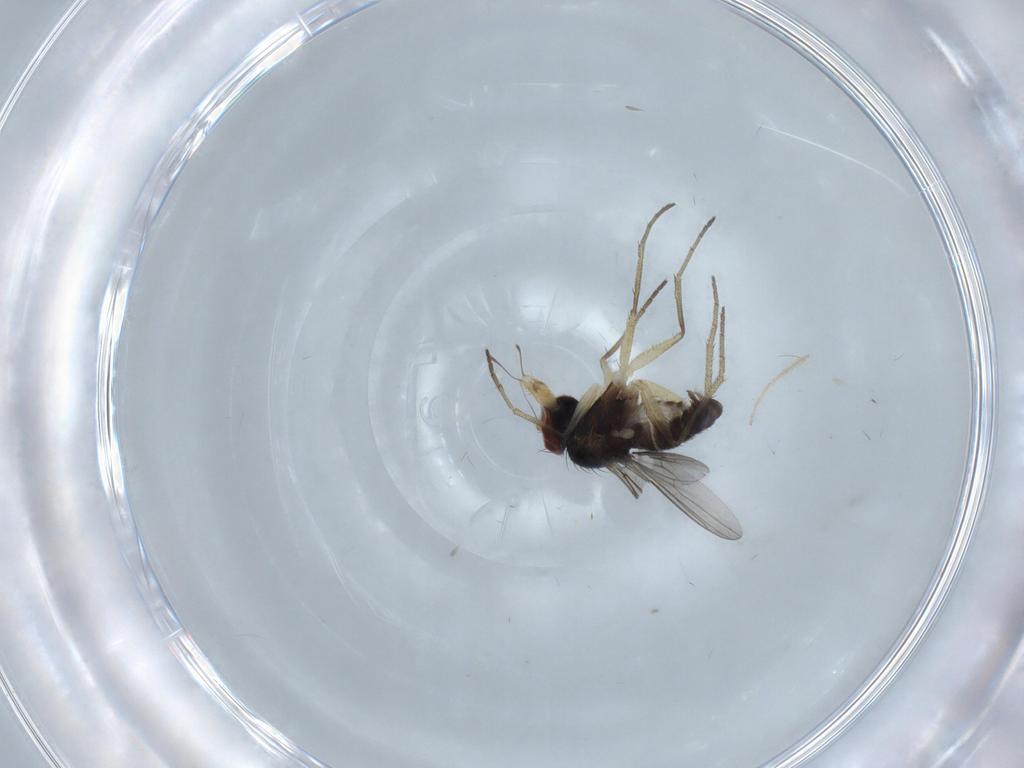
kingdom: Animalia
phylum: Arthropoda
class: Insecta
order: Diptera
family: Dolichopodidae
